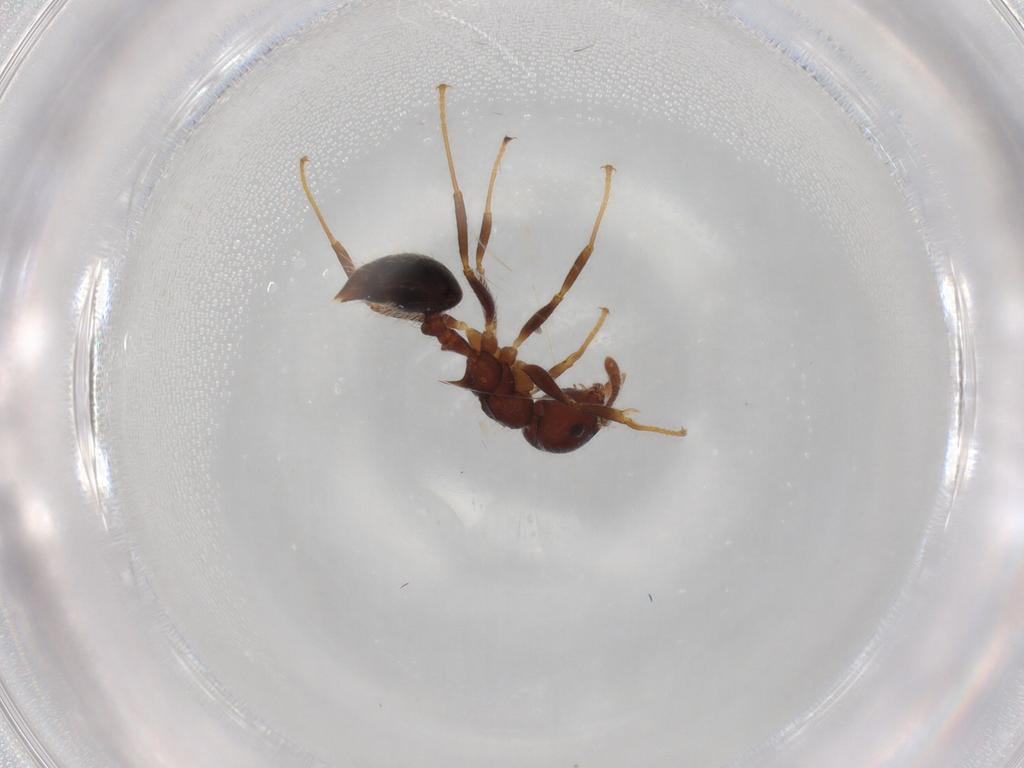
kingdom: Animalia
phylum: Arthropoda
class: Insecta
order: Hymenoptera
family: Formicidae
